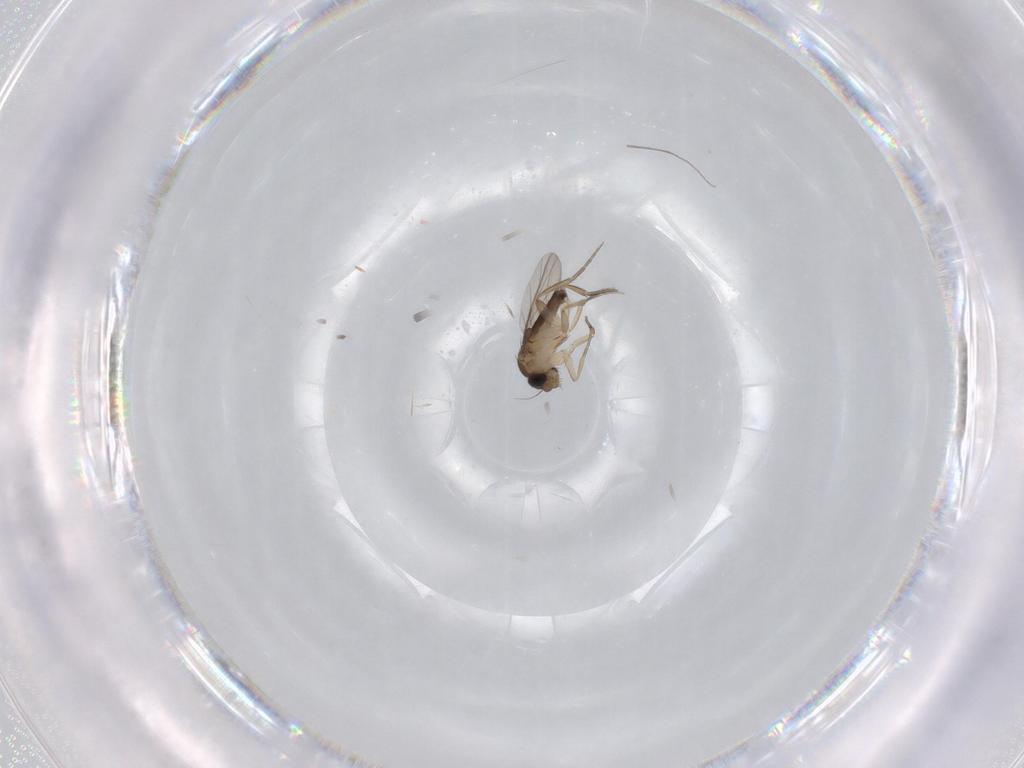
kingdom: Animalia
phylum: Arthropoda
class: Insecta
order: Diptera
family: Phoridae
